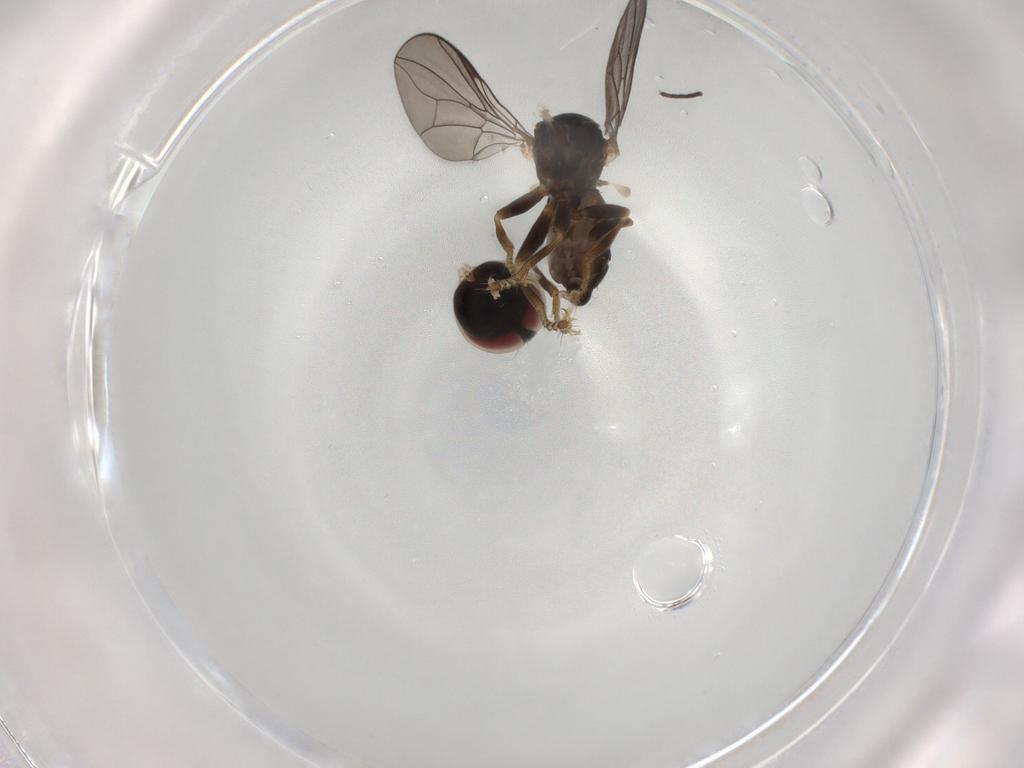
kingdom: Animalia
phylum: Arthropoda
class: Insecta
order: Diptera
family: Pipunculidae
